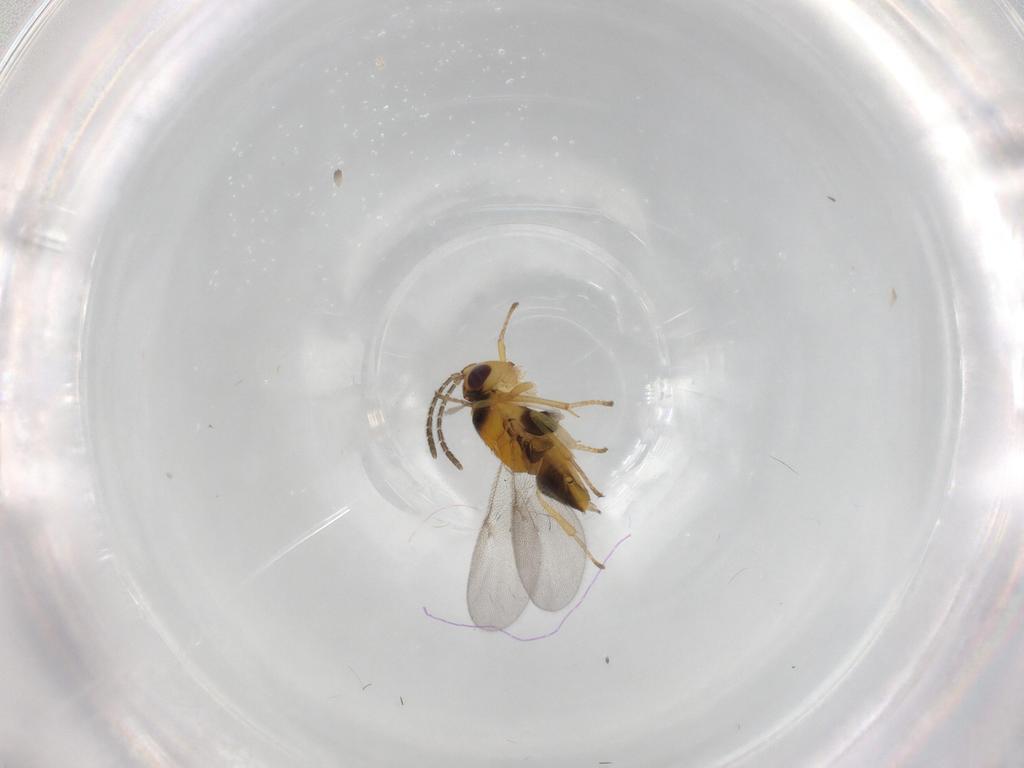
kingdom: Animalia
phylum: Arthropoda
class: Insecta
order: Hymenoptera
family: Encyrtidae
